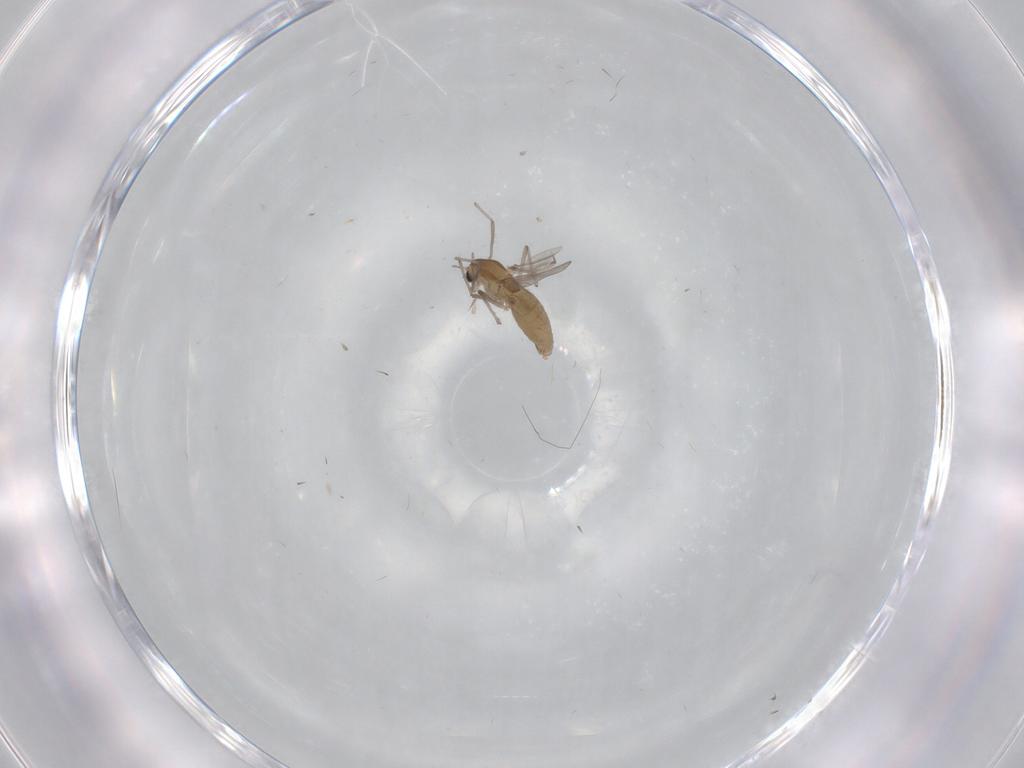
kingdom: Animalia
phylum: Arthropoda
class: Insecta
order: Diptera
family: Chironomidae
